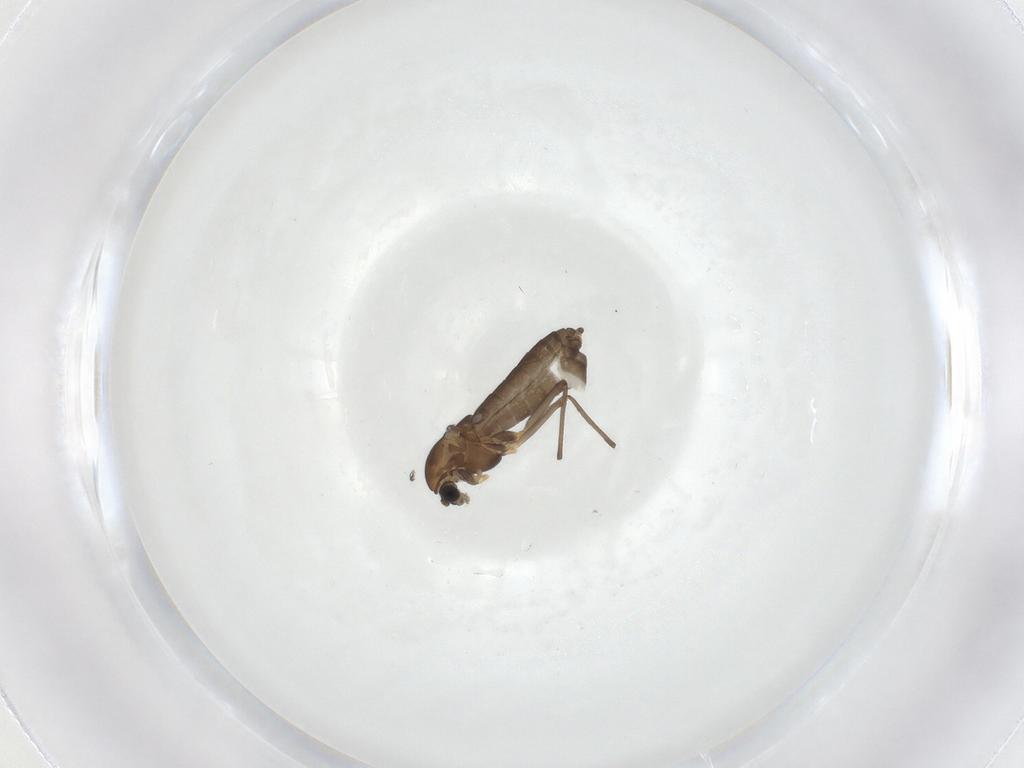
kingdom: Animalia
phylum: Arthropoda
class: Insecta
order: Diptera
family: Chironomidae
